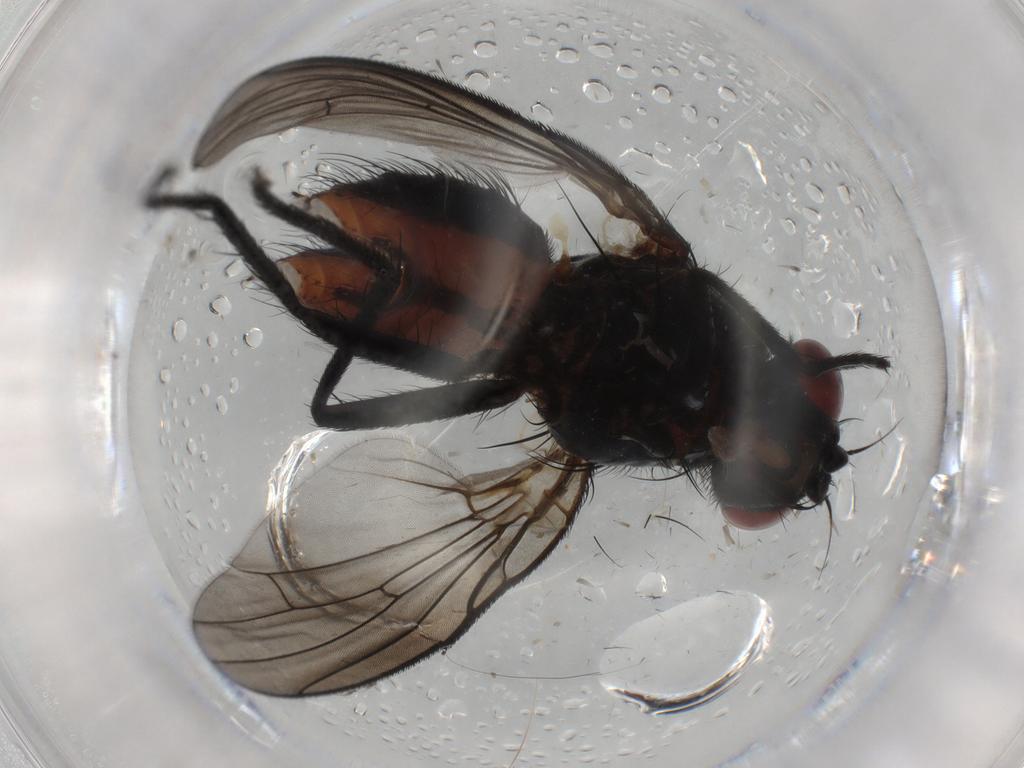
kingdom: Animalia
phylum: Arthropoda
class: Insecta
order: Diptera
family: Anthomyiidae
